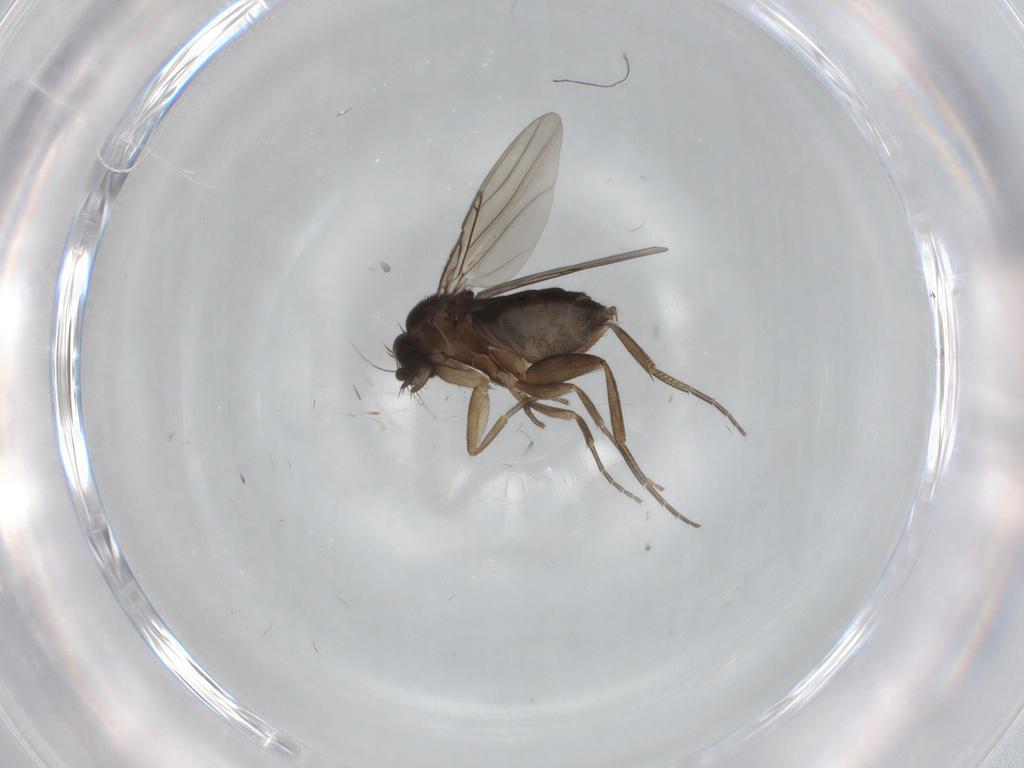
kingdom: Animalia
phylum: Arthropoda
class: Insecta
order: Diptera
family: Phoridae
